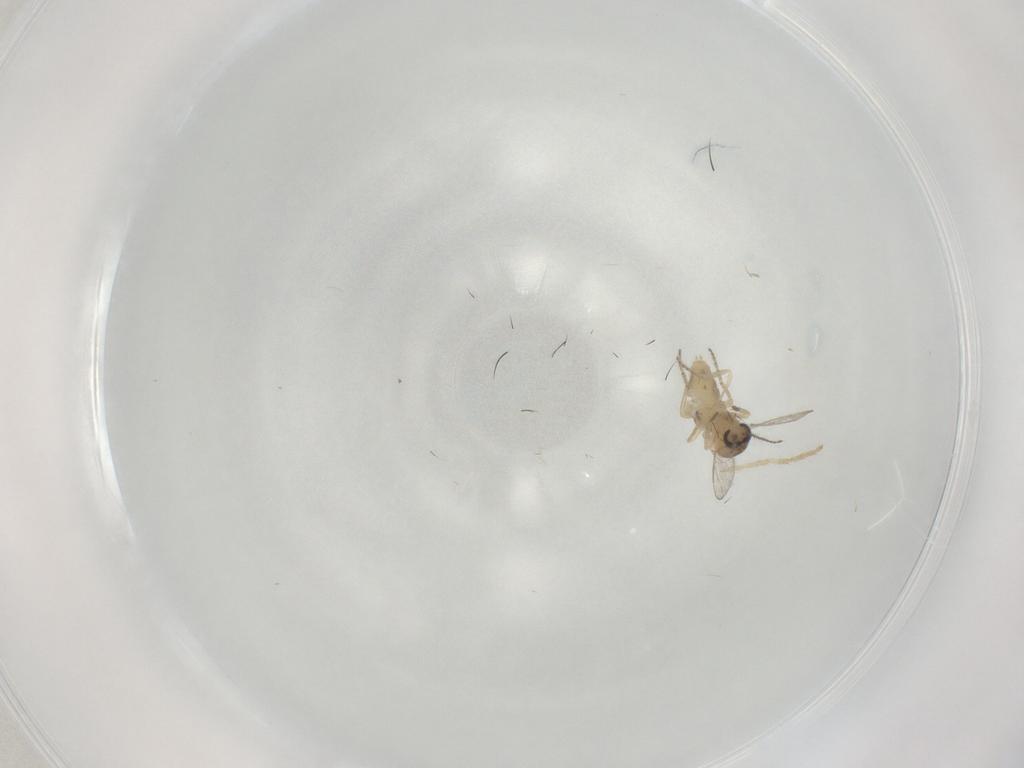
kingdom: Animalia
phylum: Arthropoda
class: Insecta
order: Diptera
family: Ceratopogonidae
